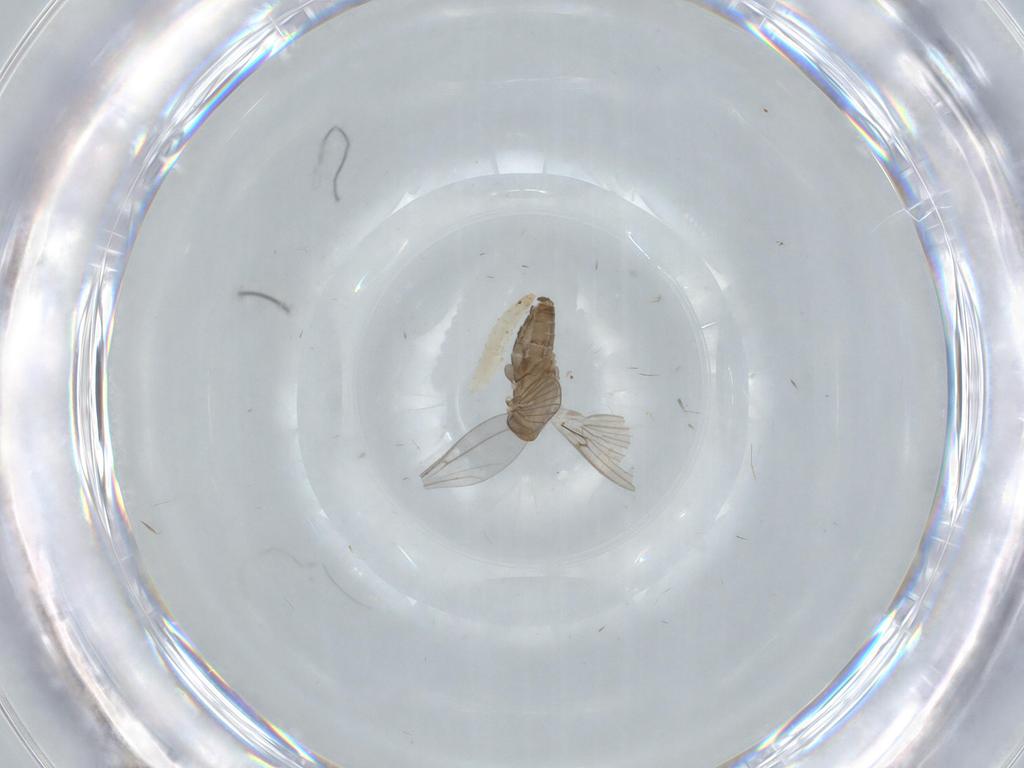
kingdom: Animalia
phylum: Arthropoda
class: Insecta
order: Diptera
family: Psychodidae
